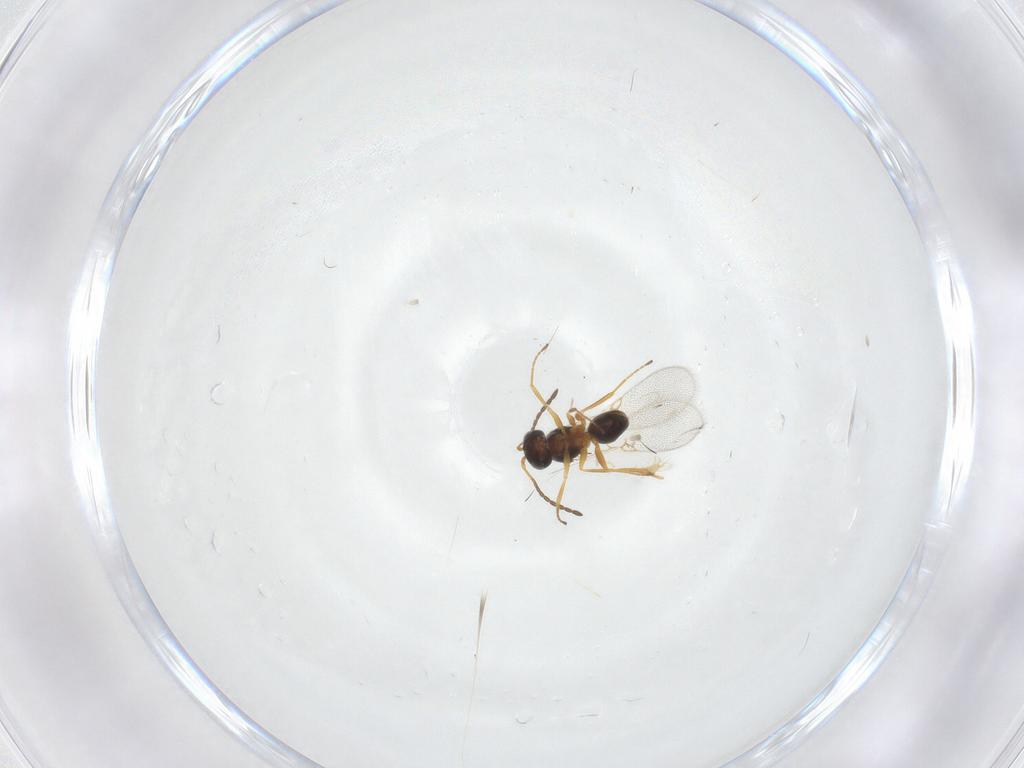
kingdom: Animalia
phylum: Arthropoda
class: Insecta
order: Hymenoptera
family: Figitidae
